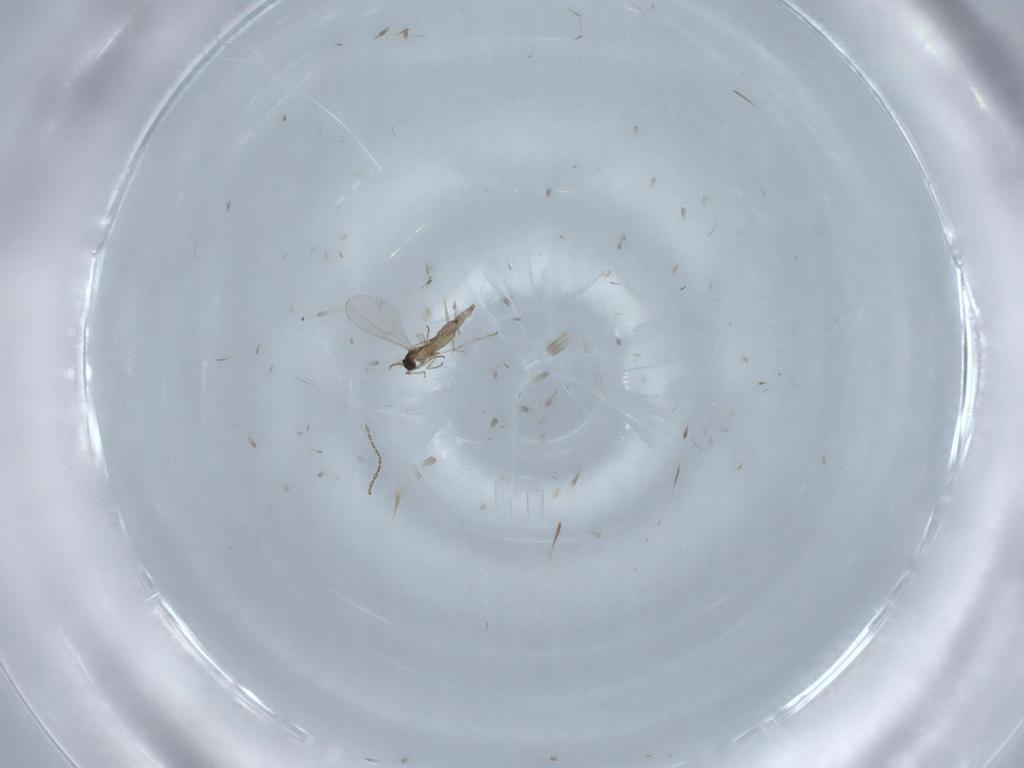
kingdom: Animalia
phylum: Arthropoda
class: Insecta
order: Diptera
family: Cecidomyiidae
